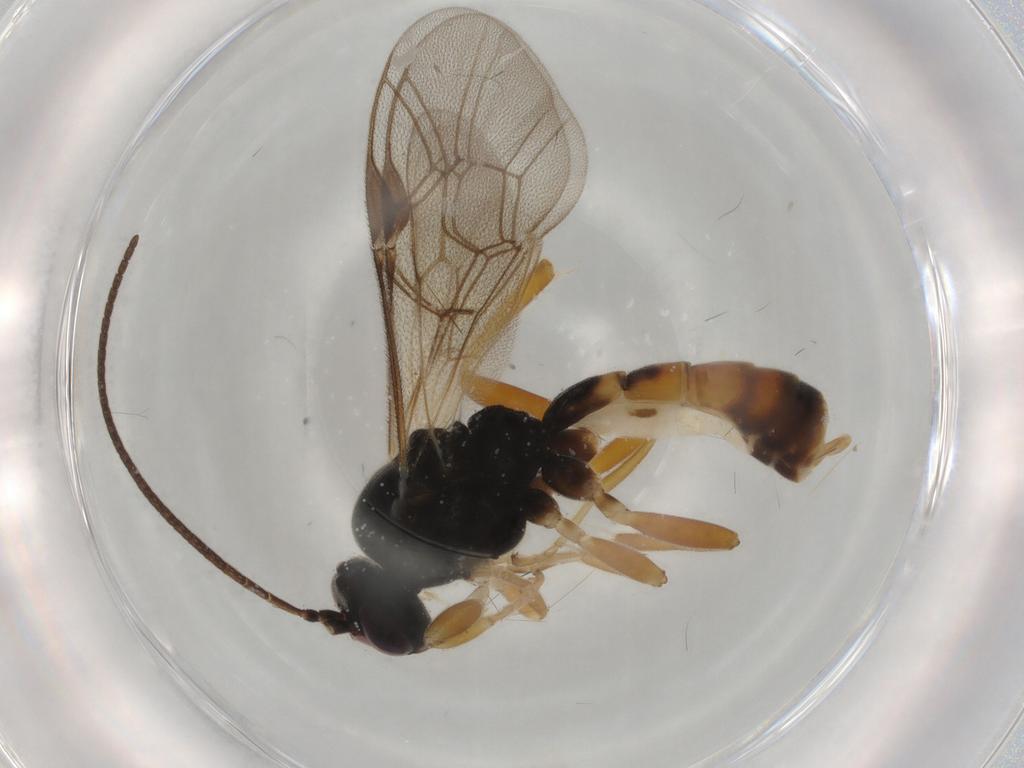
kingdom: Animalia
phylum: Arthropoda
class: Insecta
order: Hymenoptera
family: Ichneumonidae
